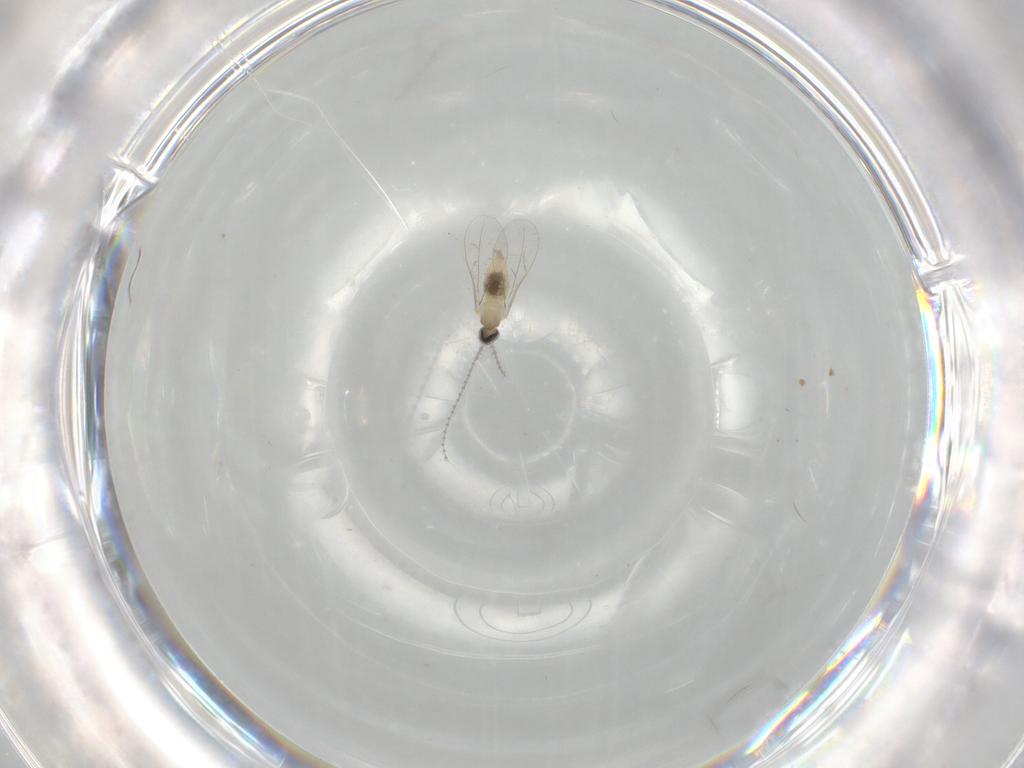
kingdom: Animalia
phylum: Arthropoda
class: Insecta
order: Diptera
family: Cecidomyiidae
